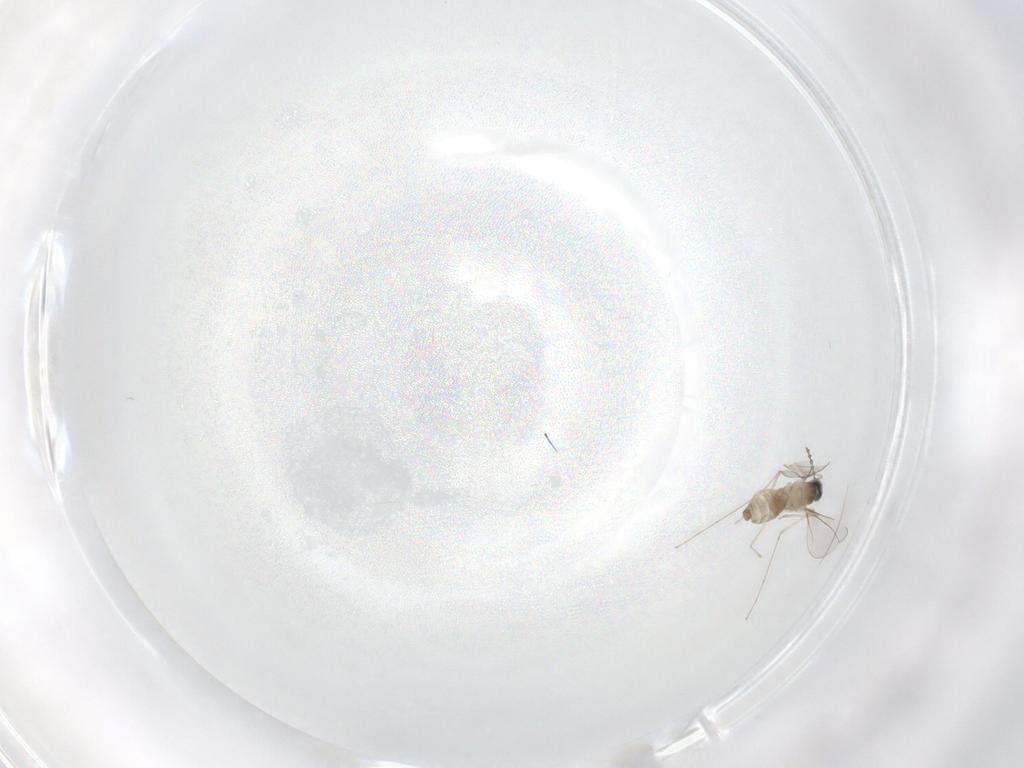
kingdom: Animalia
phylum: Arthropoda
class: Insecta
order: Diptera
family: Cecidomyiidae
